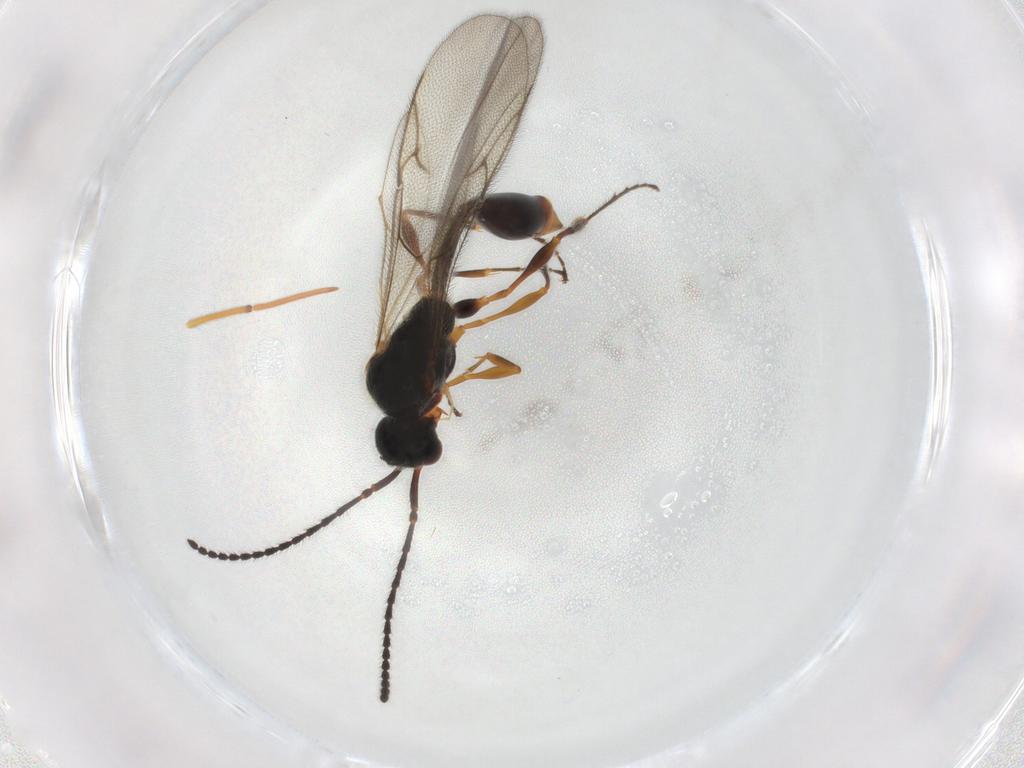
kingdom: Animalia
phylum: Arthropoda
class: Insecta
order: Hymenoptera
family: Diapriidae
